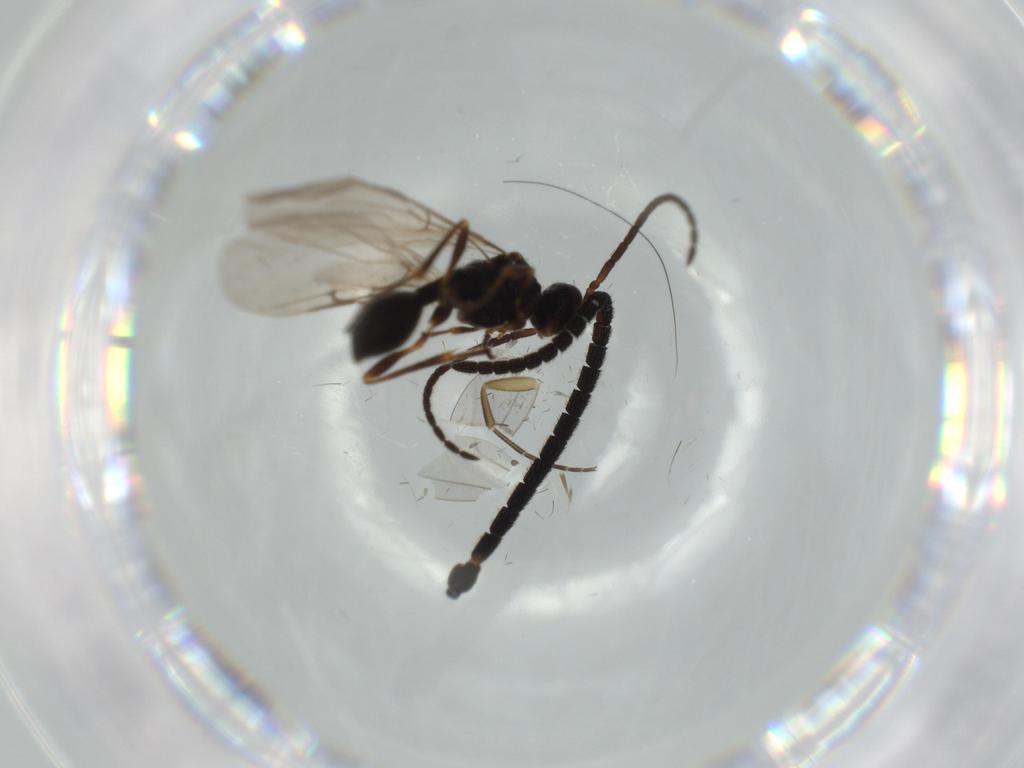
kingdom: Animalia
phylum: Arthropoda
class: Insecta
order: Hymenoptera
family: Ichneumonidae
